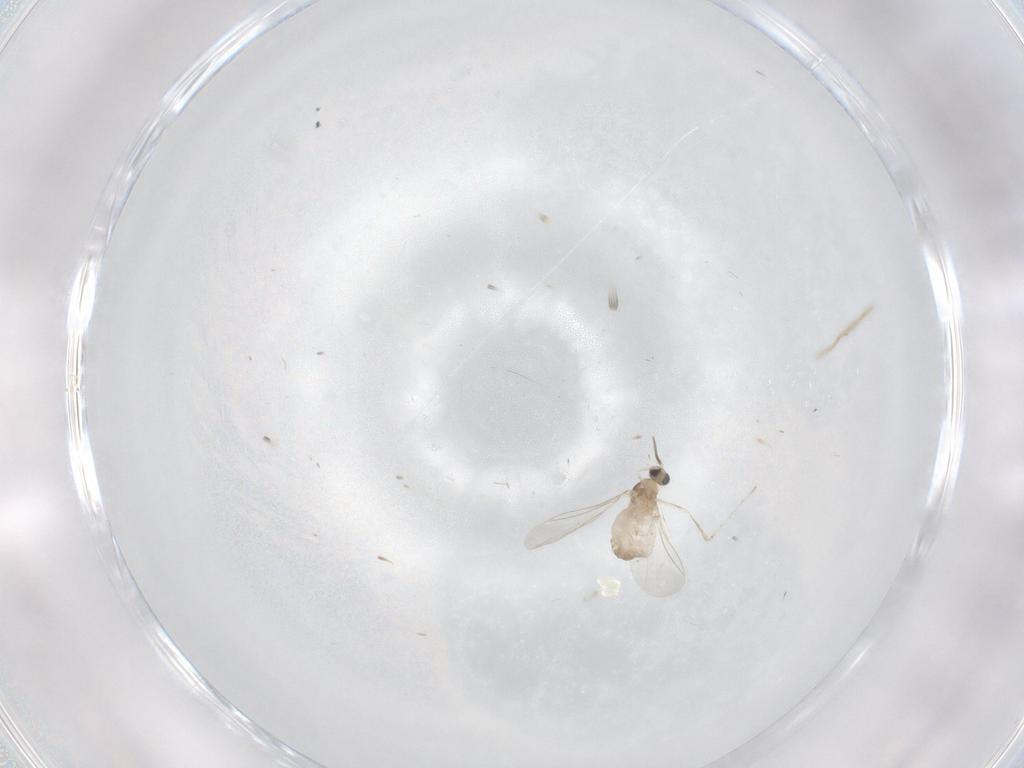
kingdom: Animalia
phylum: Arthropoda
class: Insecta
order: Diptera
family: Cecidomyiidae
